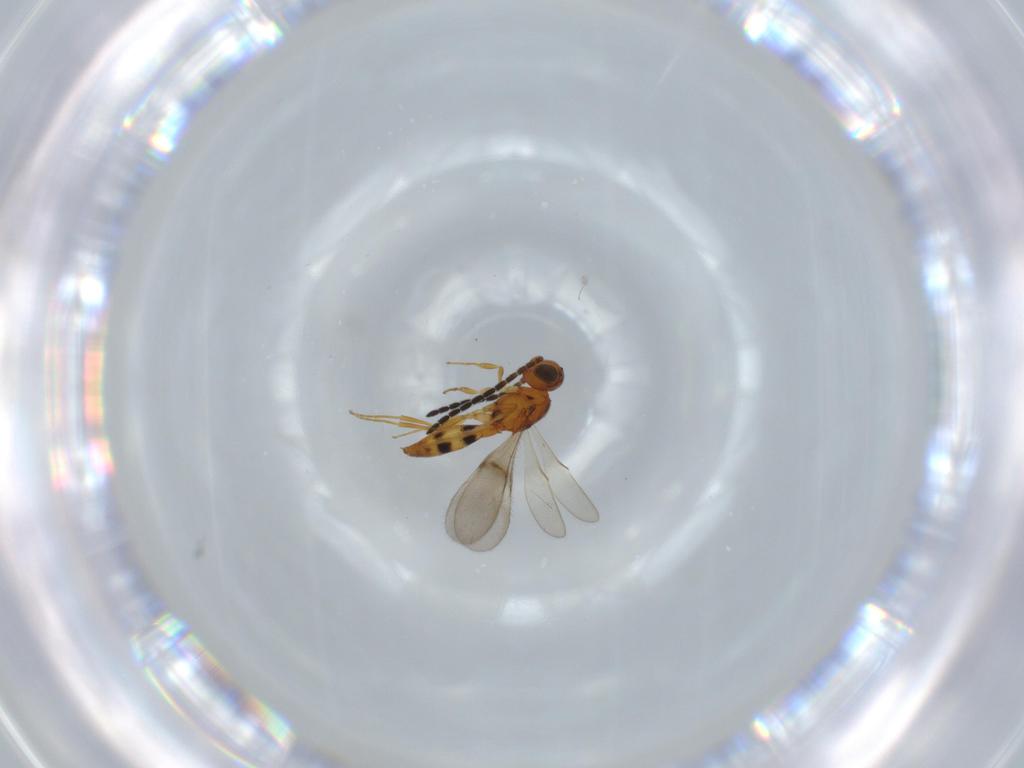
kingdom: Animalia
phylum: Arthropoda
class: Insecta
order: Hymenoptera
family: Scelionidae
